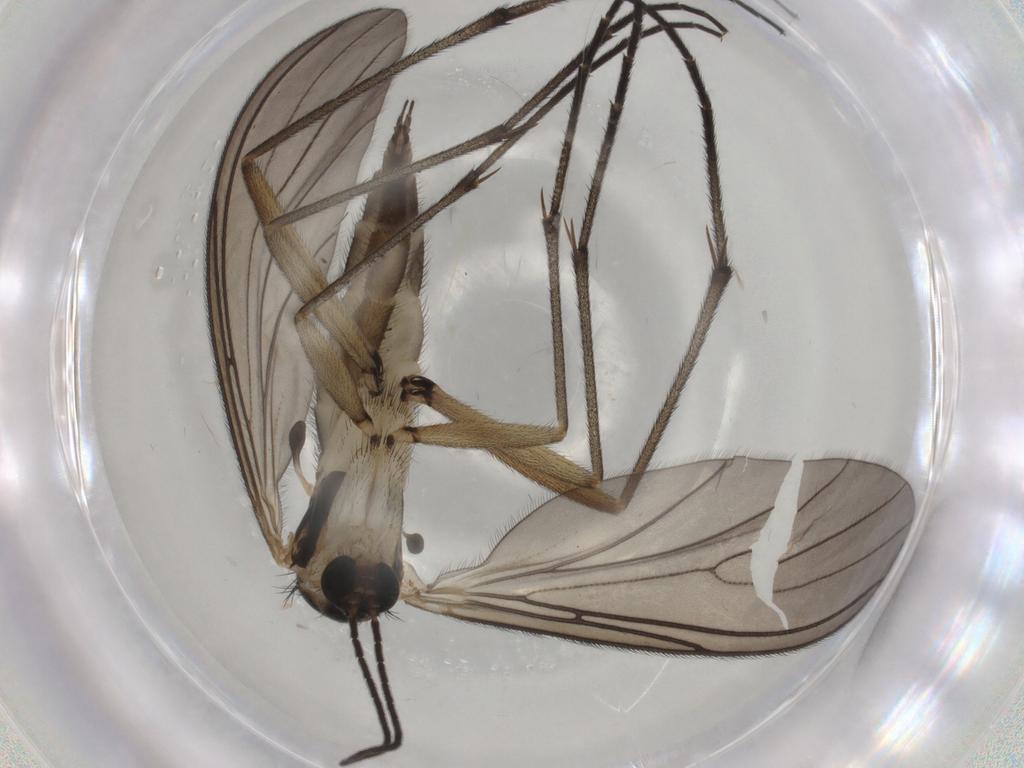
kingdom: Animalia
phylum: Arthropoda
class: Insecta
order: Diptera
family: Sciaridae
